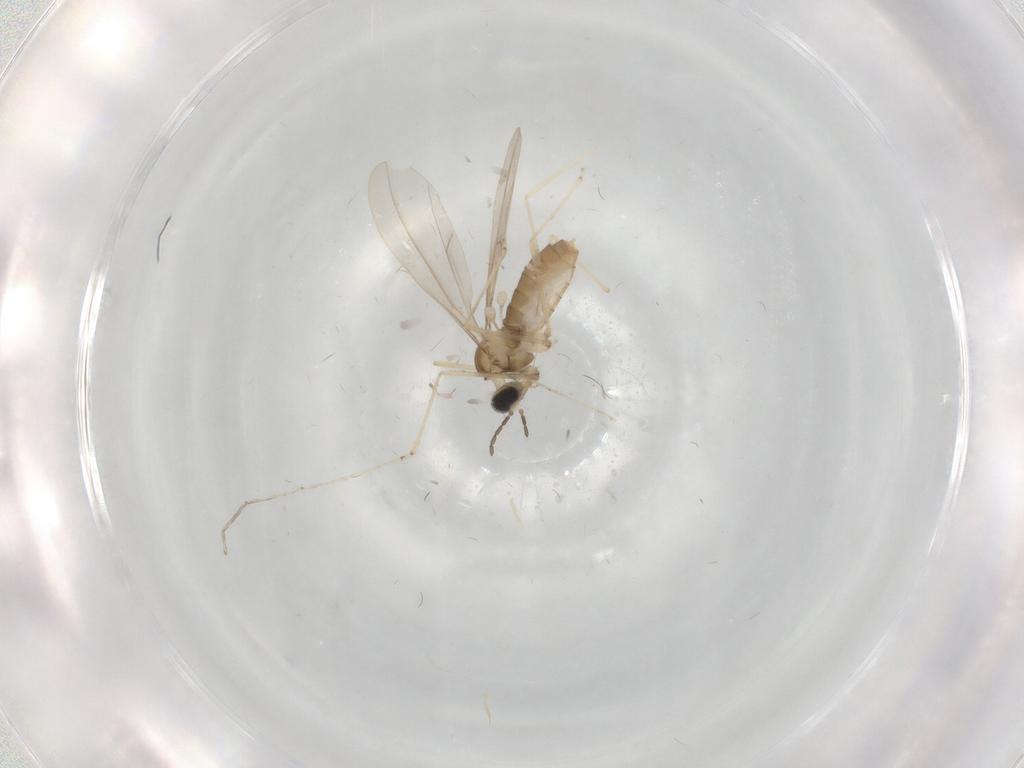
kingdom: Animalia
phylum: Arthropoda
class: Insecta
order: Diptera
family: Cecidomyiidae
